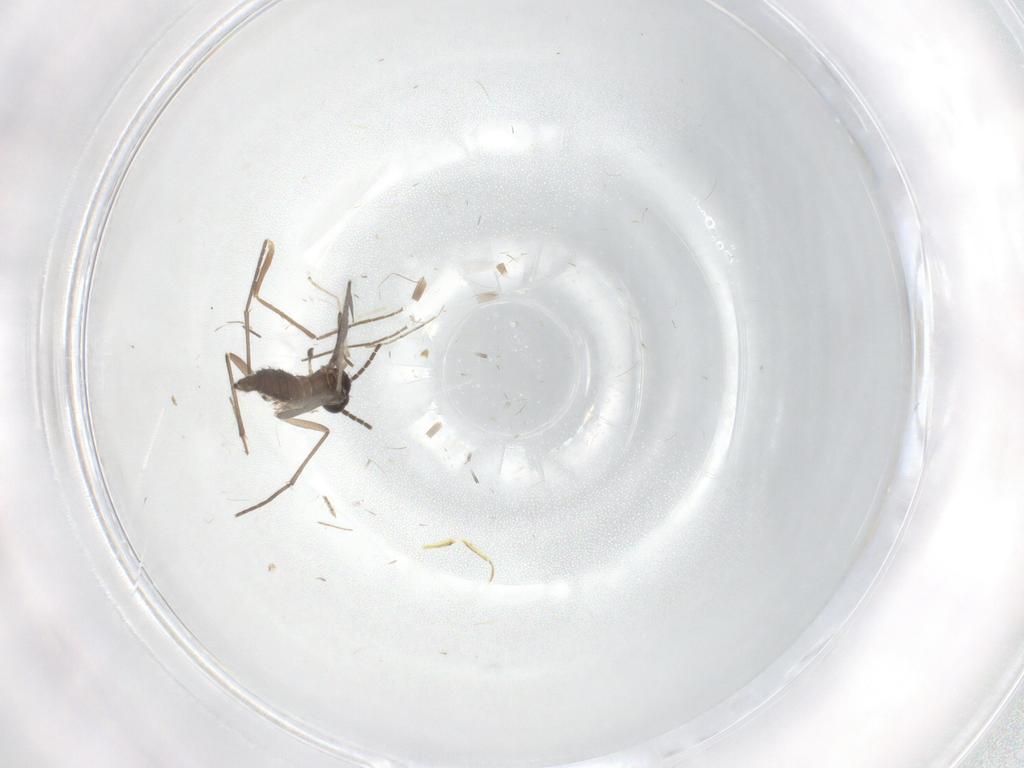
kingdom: Animalia
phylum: Arthropoda
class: Insecta
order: Diptera
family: Sciaridae
